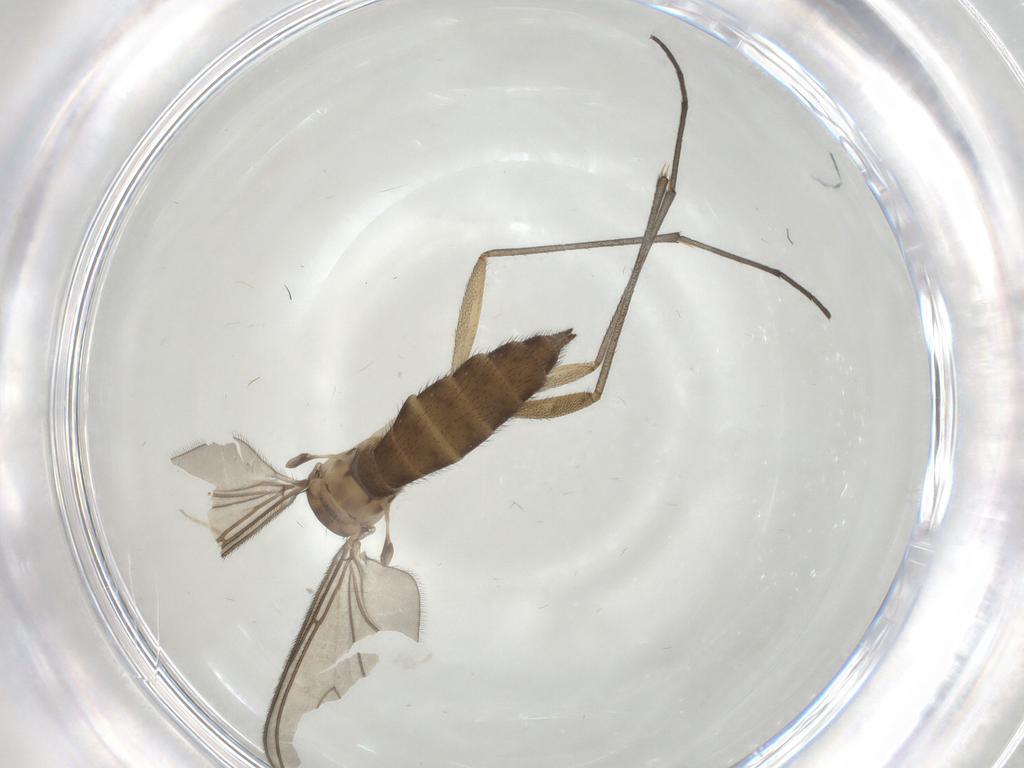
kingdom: Animalia
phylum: Arthropoda
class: Insecta
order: Diptera
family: Sciaridae
